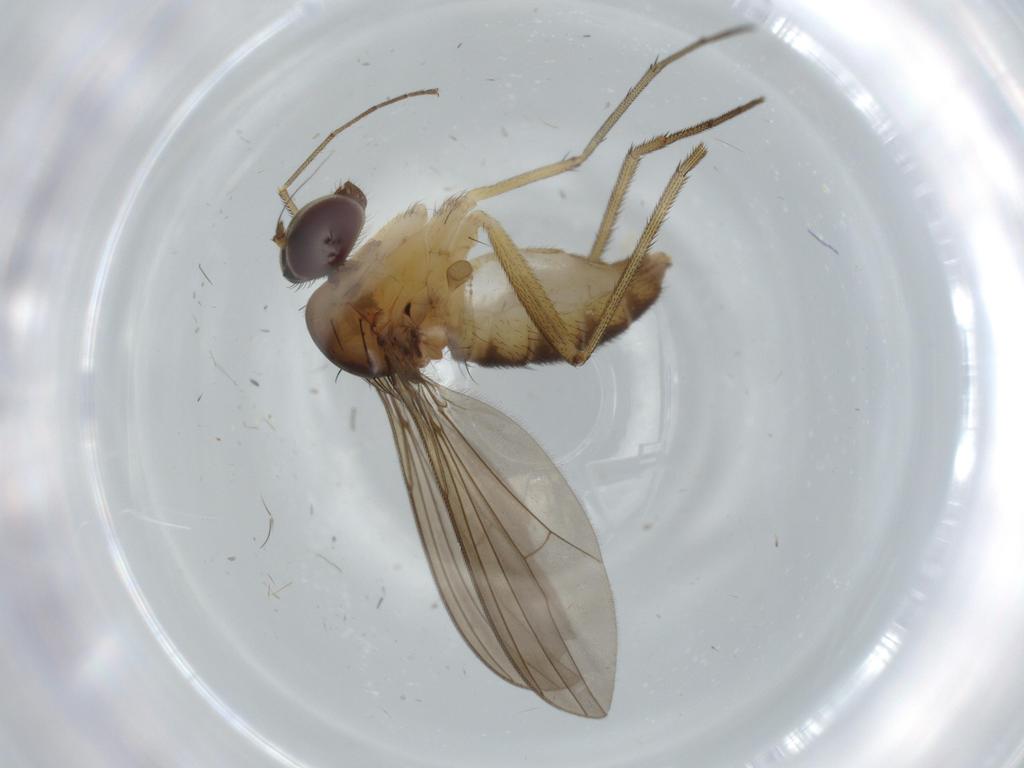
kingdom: Animalia
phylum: Arthropoda
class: Insecta
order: Diptera
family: Dolichopodidae
